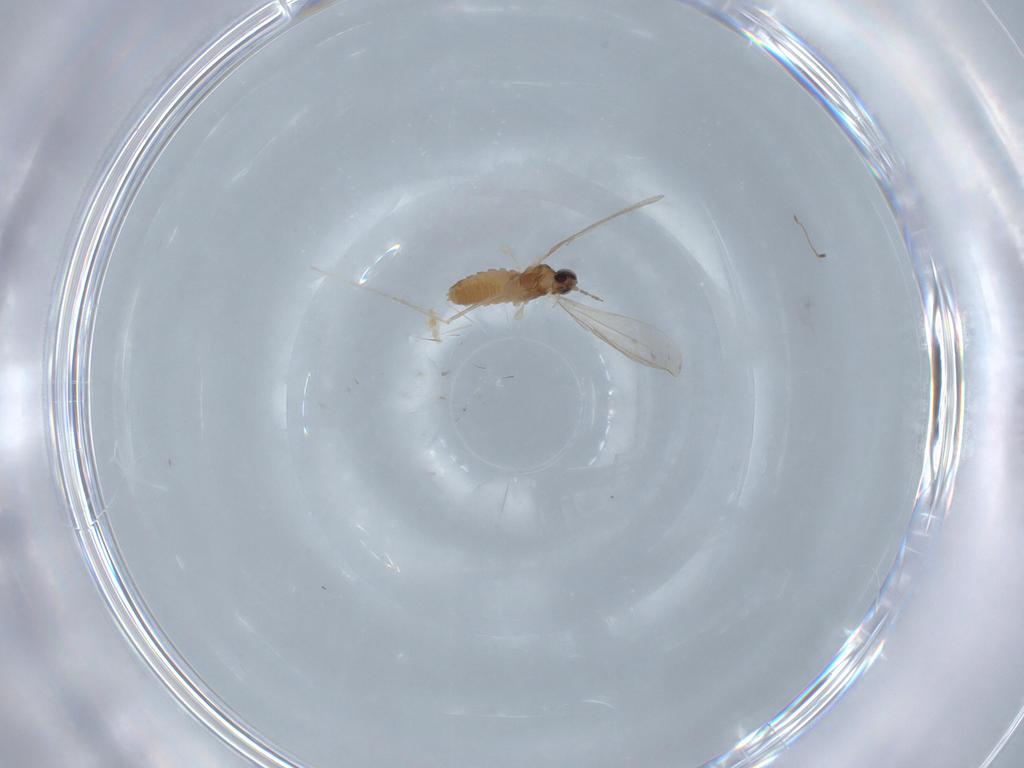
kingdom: Animalia
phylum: Arthropoda
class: Insecta
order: Diptera
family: Cecidomyiidae
